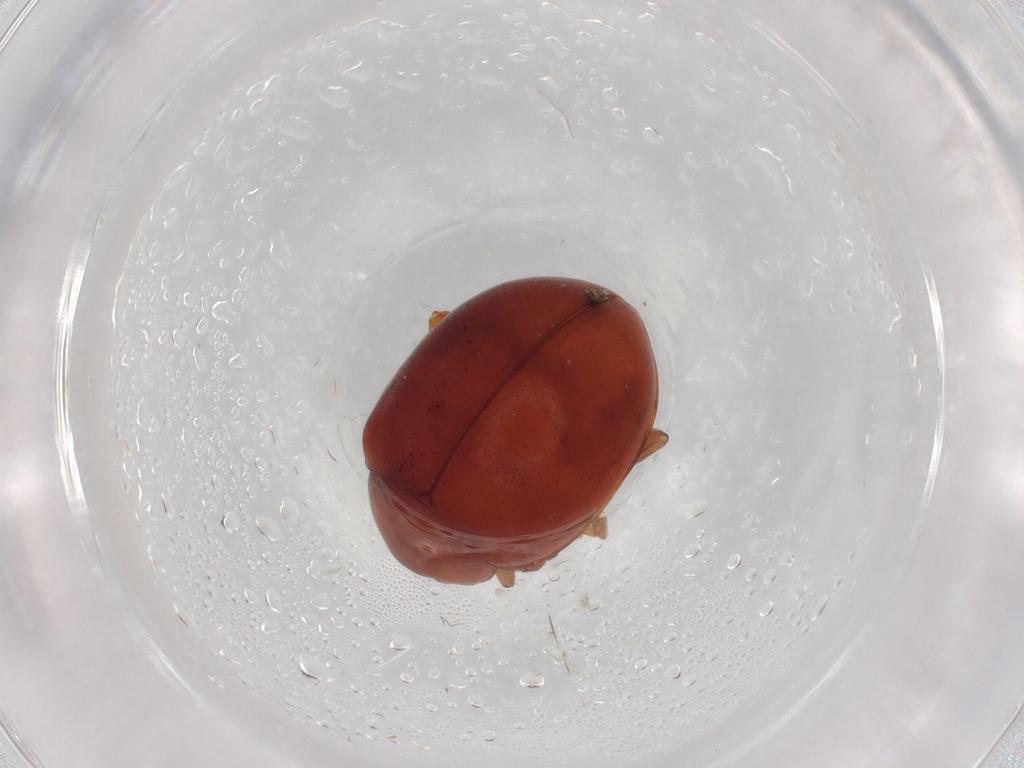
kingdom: Animalia
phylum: Arthropoda
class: Insecta
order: Coleoptera
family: Chrysomelidae
